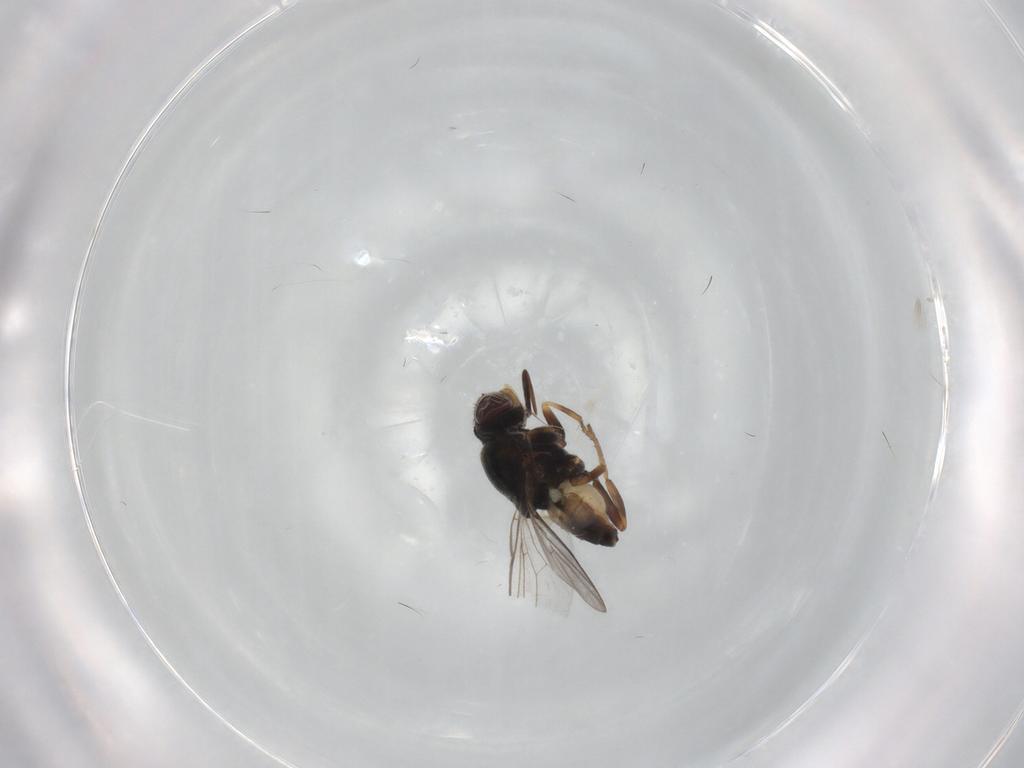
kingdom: Animalia
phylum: Arthropoda
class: Insecta
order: Diptera
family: Chloropidae
